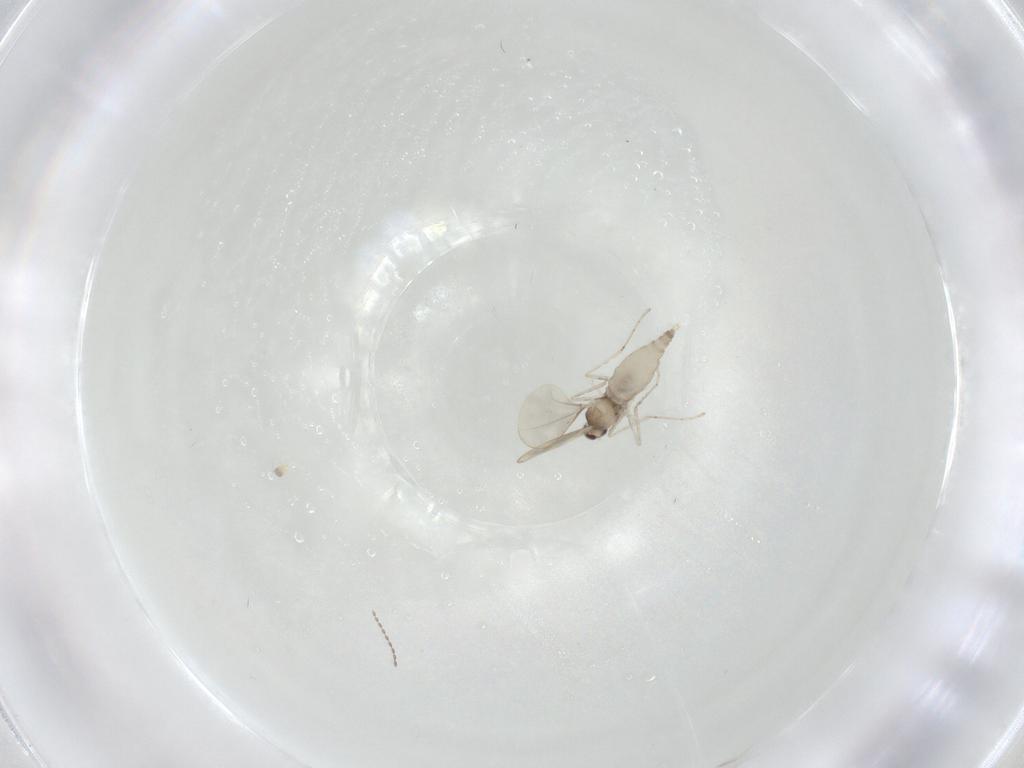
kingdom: Animalia
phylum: Arthropoda
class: Insecta
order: Diptera
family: Cecidomyiidae
